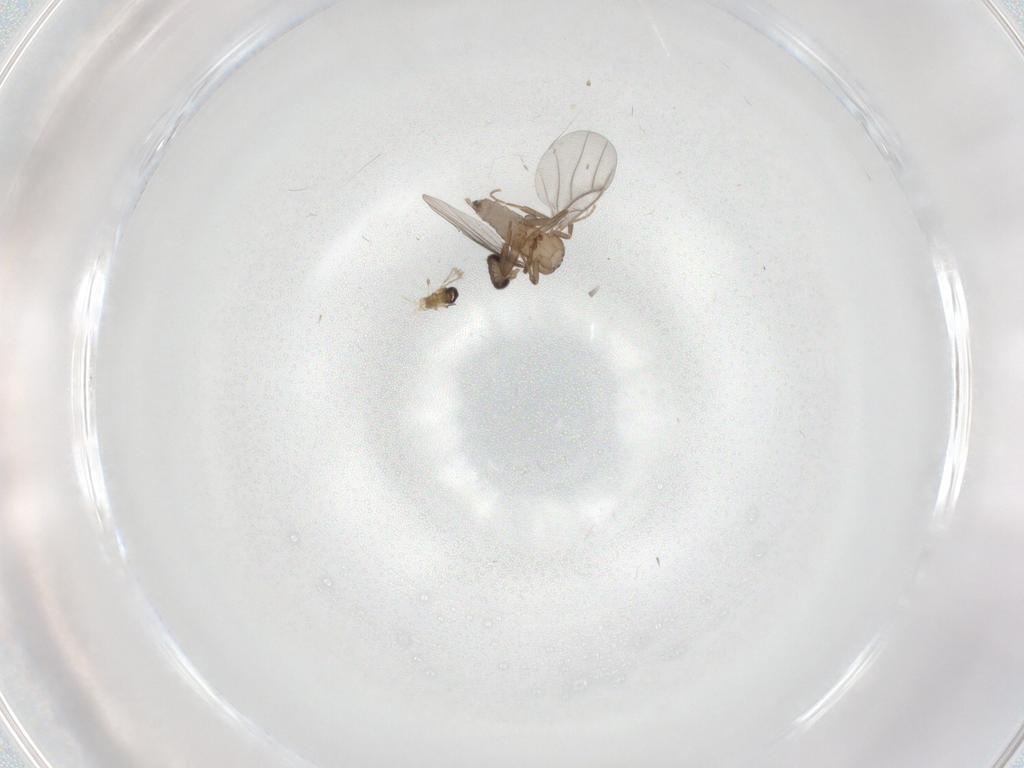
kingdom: Animalia
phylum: Arthropoda
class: Insecta
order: Diptera
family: Cecidomyiidae
